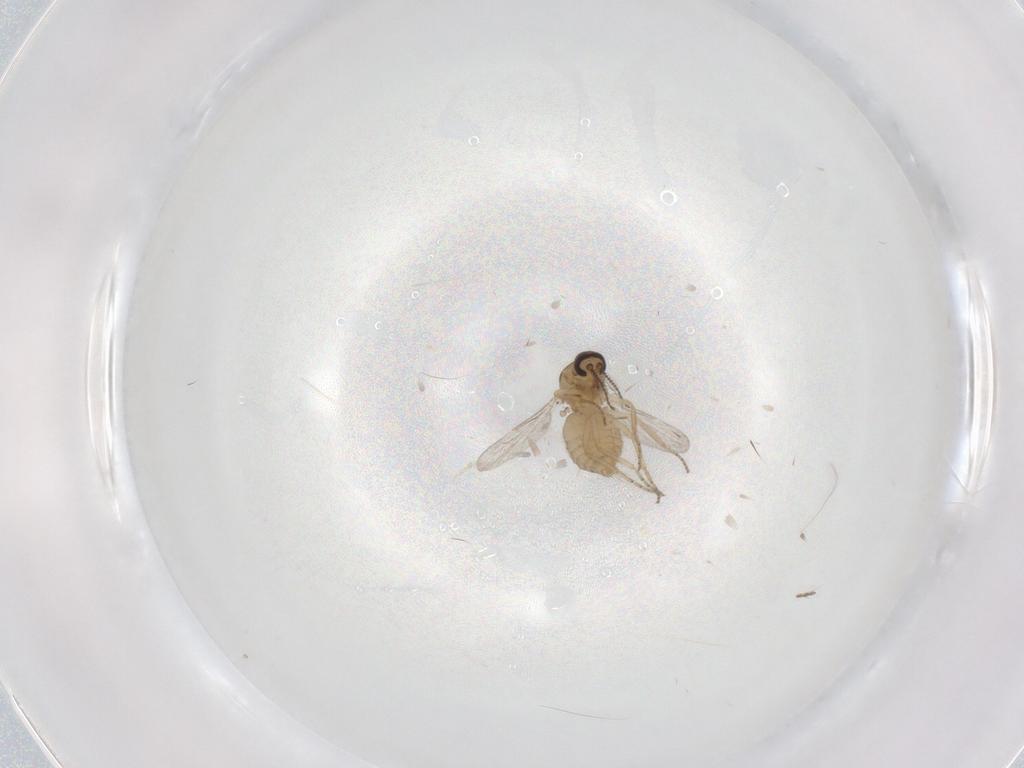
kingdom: Animalia
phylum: Arthropoda
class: Insecta
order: Diptera
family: Ceratopogonidae
